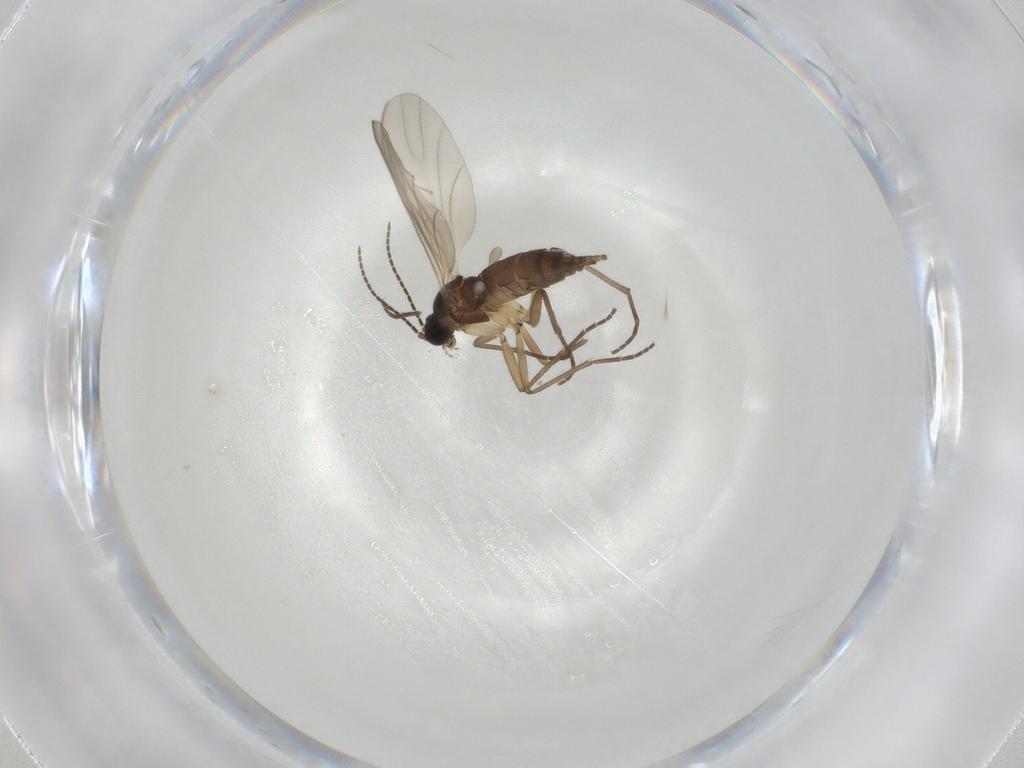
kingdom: Animalia
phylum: Arthropoda
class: Insecta
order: Diptera
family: Sciaridae
